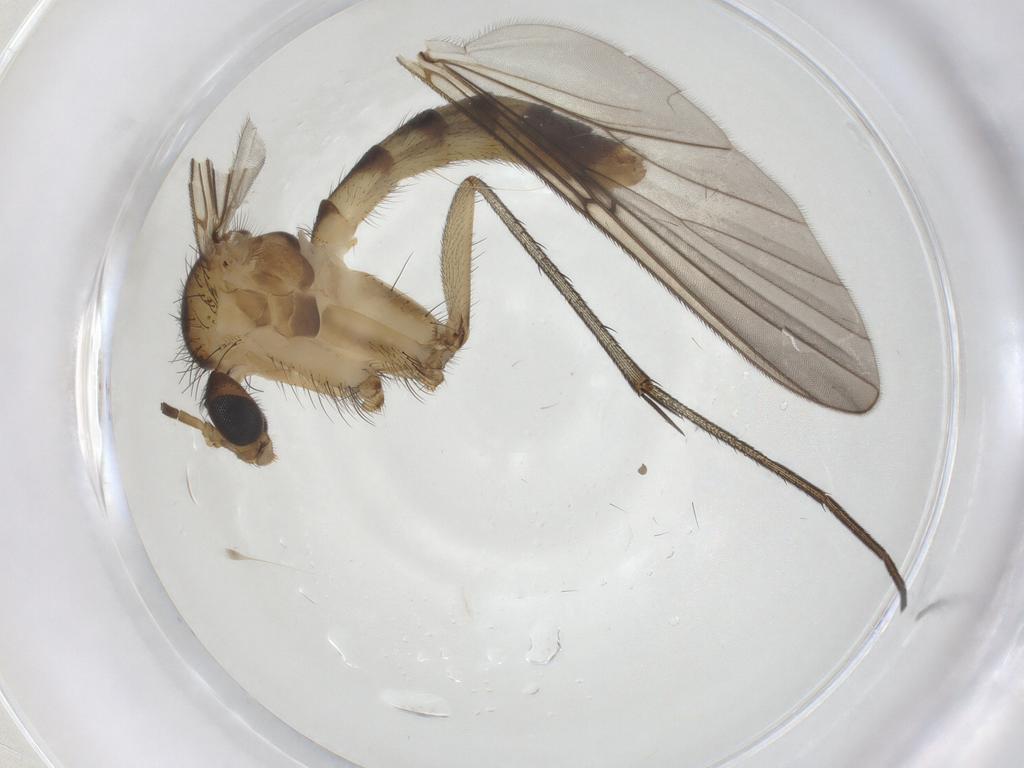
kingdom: Animalia
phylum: Arthropoda
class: Insecta
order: Diptera
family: Mycetophilidae
